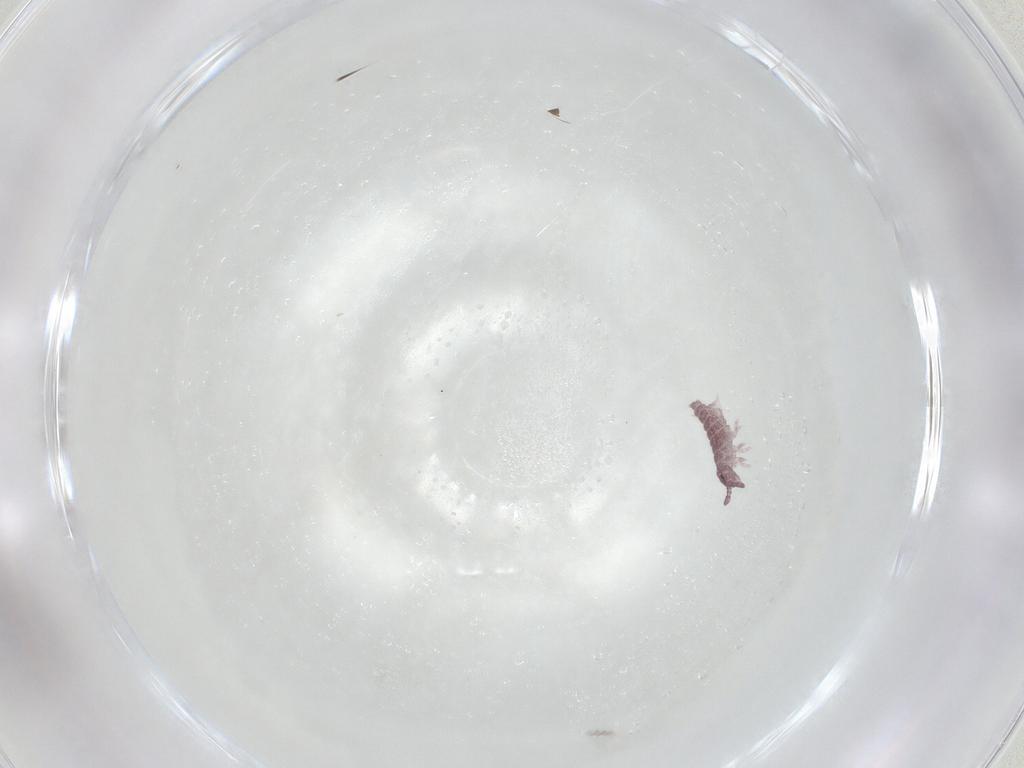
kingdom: Animalia
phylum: Arthropoda
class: Collembola
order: Poduromorpha
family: Hypogastruridae
